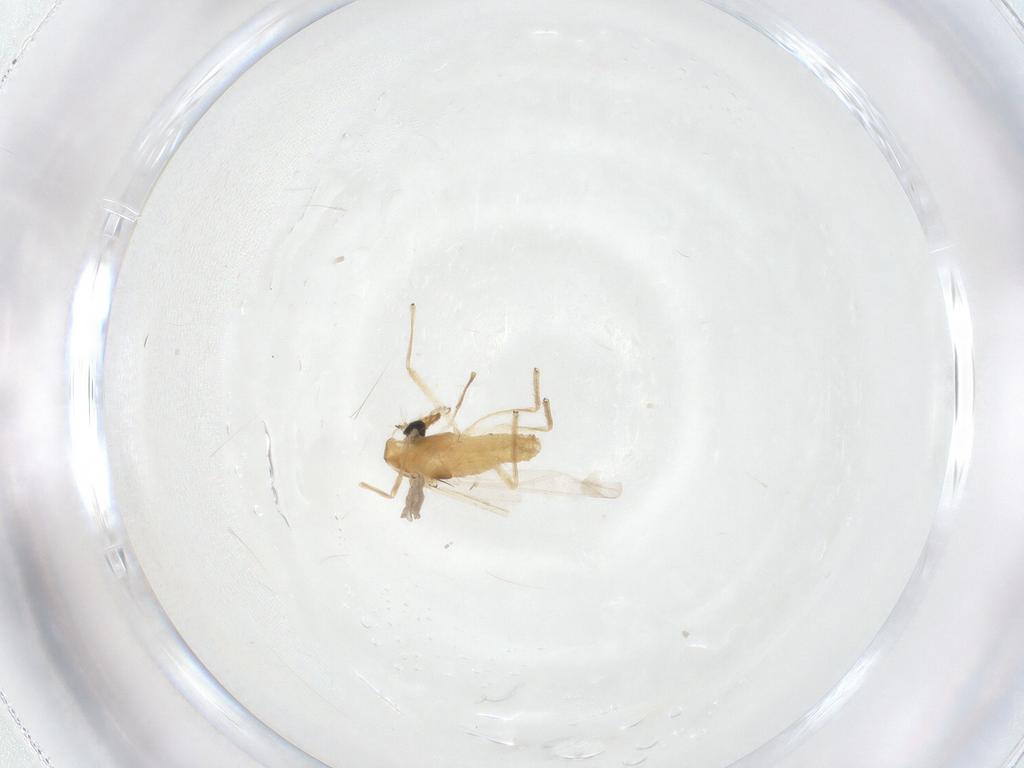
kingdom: Animalia
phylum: Arthropoda
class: Insecta
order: Diptera
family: Chironomidae
